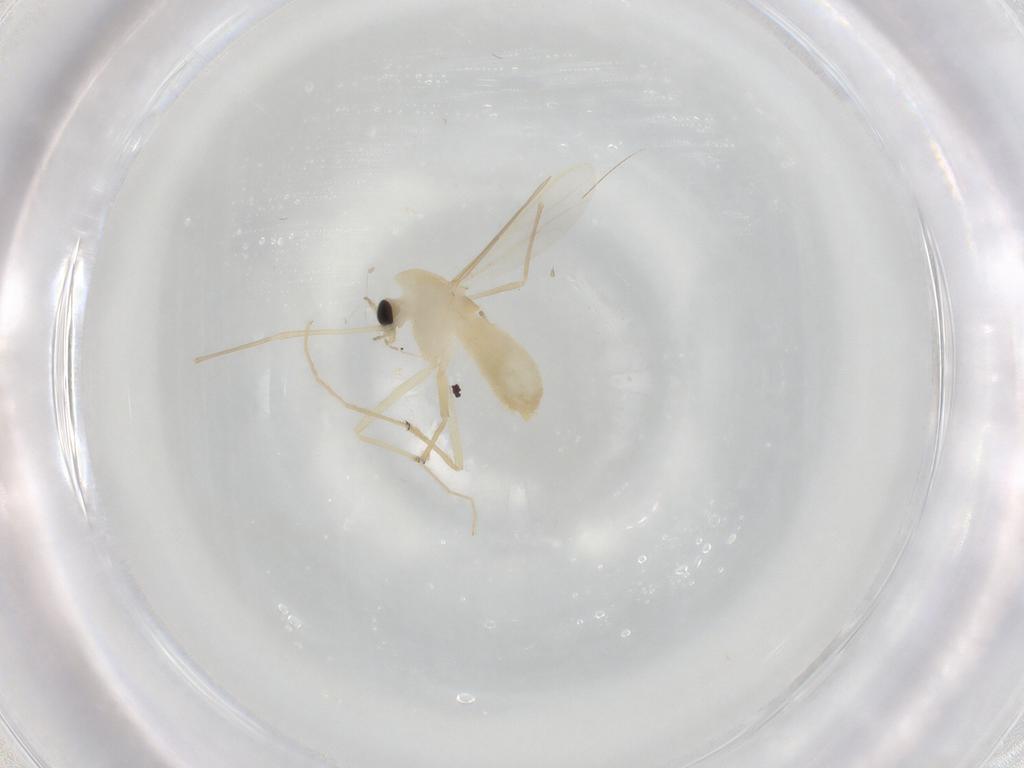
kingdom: Animalia
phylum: Arthropoda
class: Insecta
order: Diptera
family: Chironomidae
